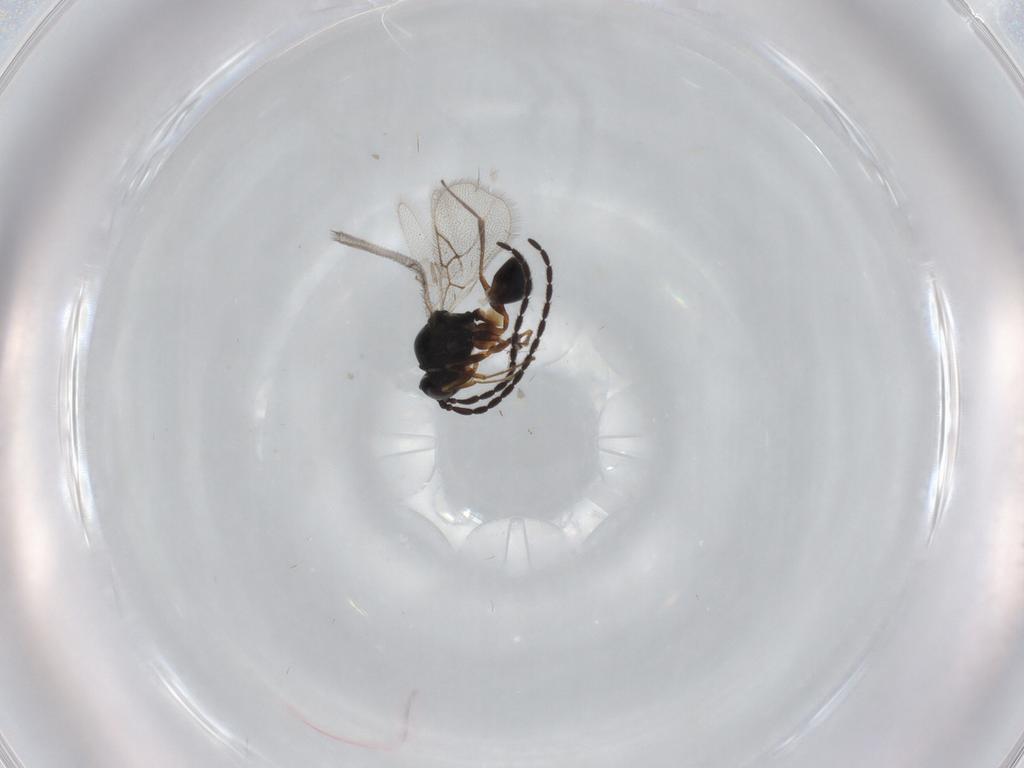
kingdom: Animalia
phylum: Arthropoda
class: Insecta
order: Hymenoptera
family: Figitidae
